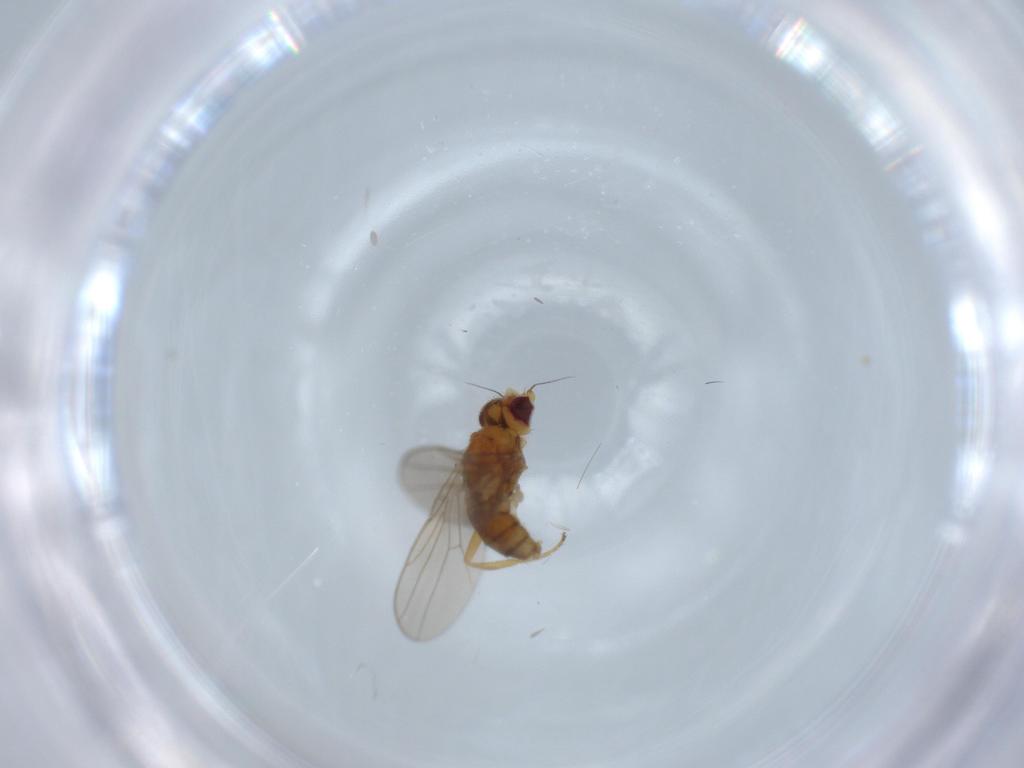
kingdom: Animalia
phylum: Arthropoda
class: Insecta
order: Diptera
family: Chloropidae
